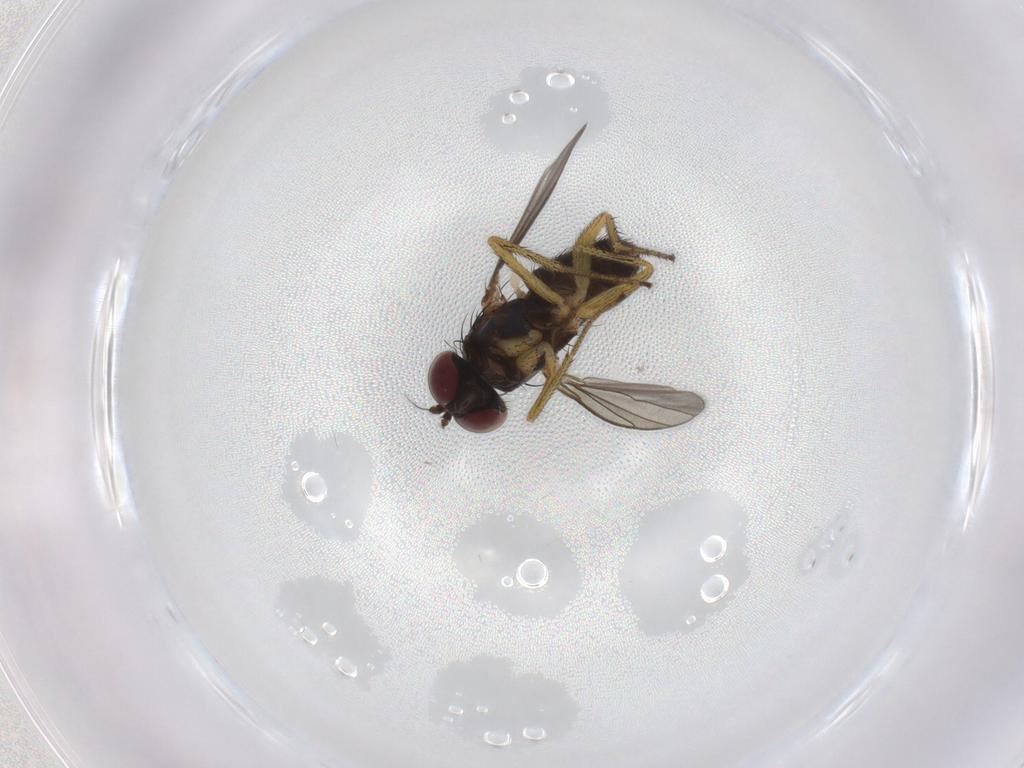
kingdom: Animalia
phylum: Arthropoda
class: Insecta
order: Diptera
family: Dolichopodidae
